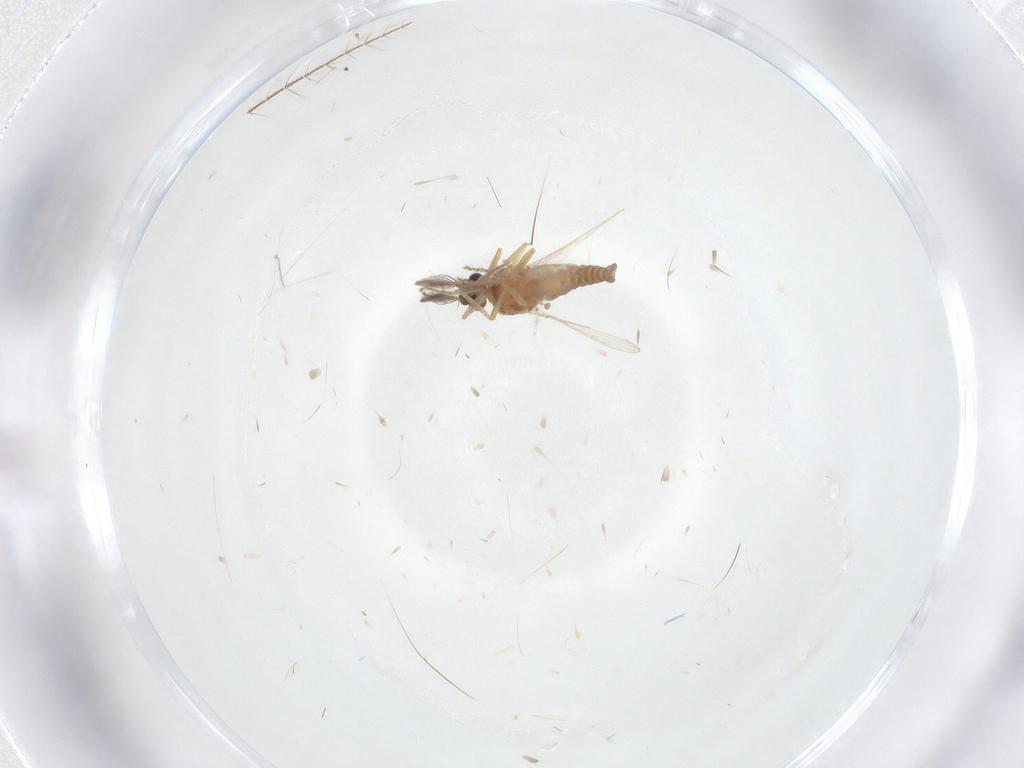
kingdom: Animalia
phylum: Arthropoda
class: Insecta
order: Diptera
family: Ceratopogonidae
